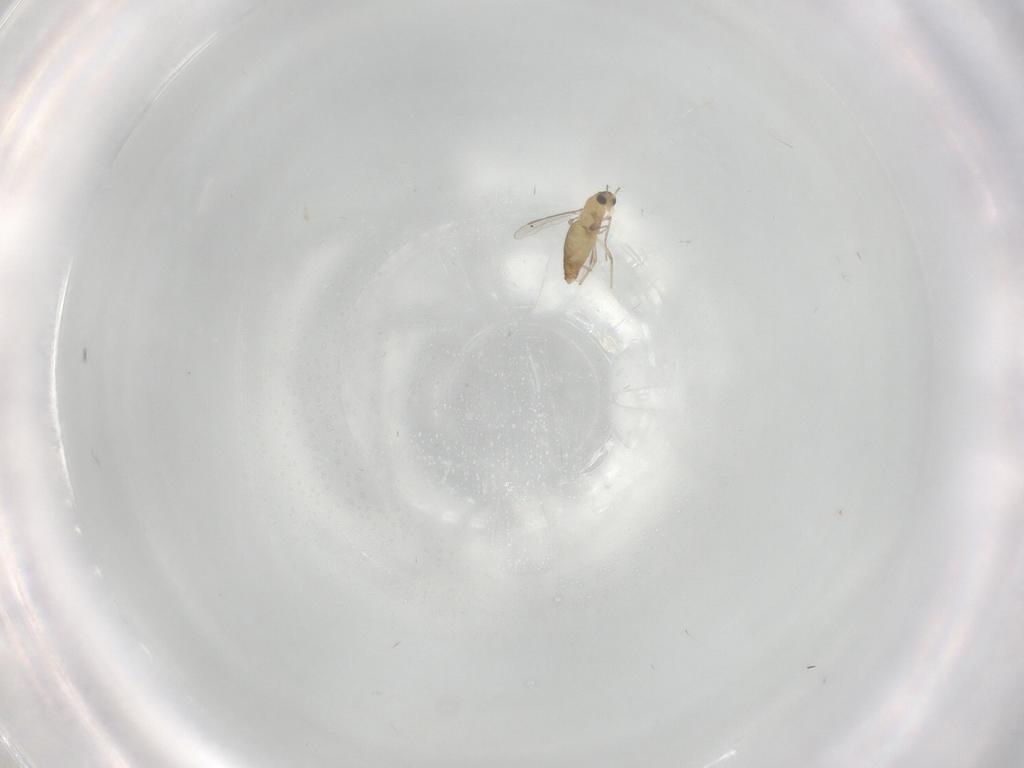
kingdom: Animalia
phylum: Arthropoda
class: Insecta
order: Diptera
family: Chironomidae
